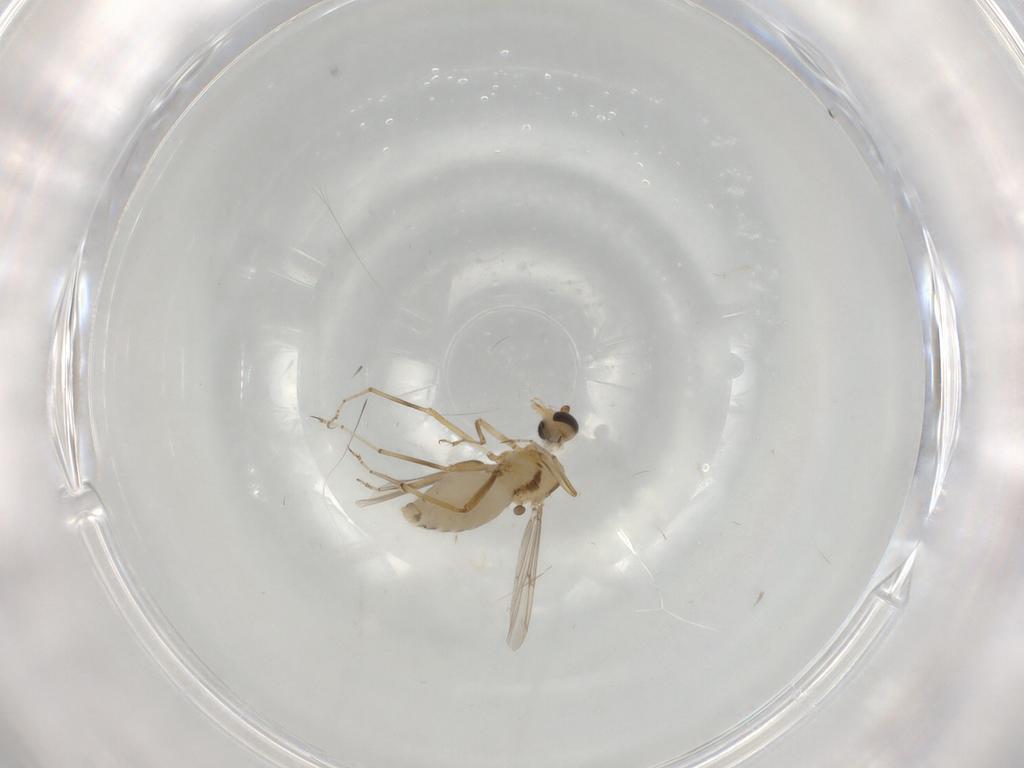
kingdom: Animalia
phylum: Arthropoda
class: Insecta
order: Diptera
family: Ceratopogonidae
